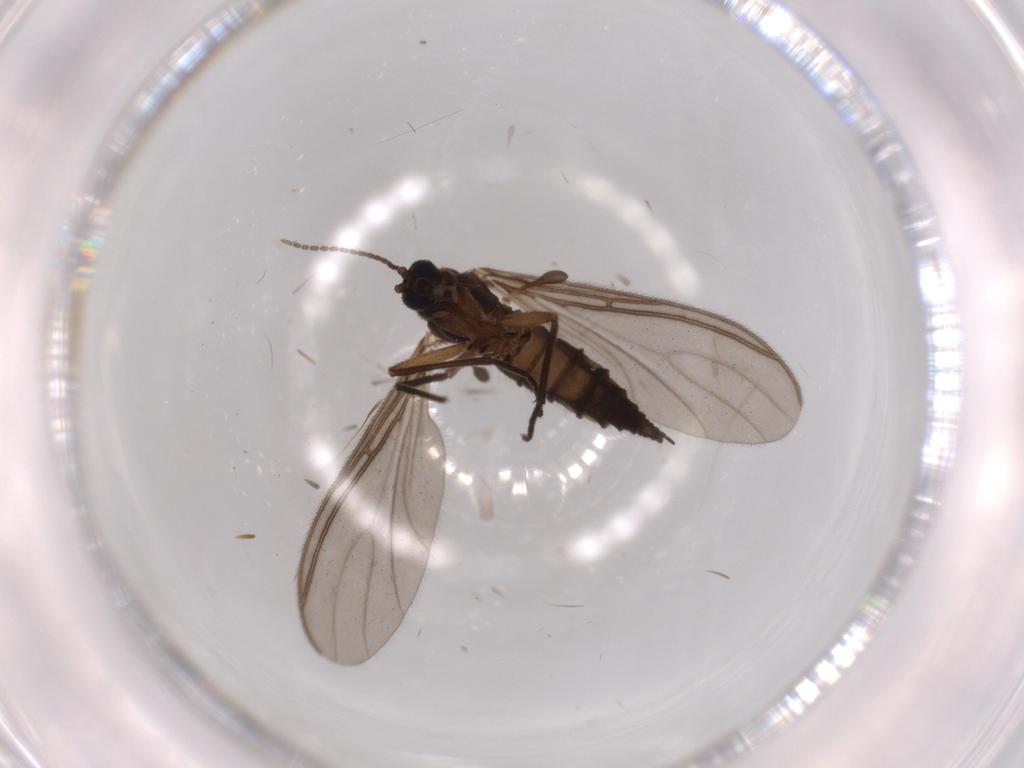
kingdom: Animalia
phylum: Arthropoda
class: Insecta
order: Diptera
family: Sciaridae
